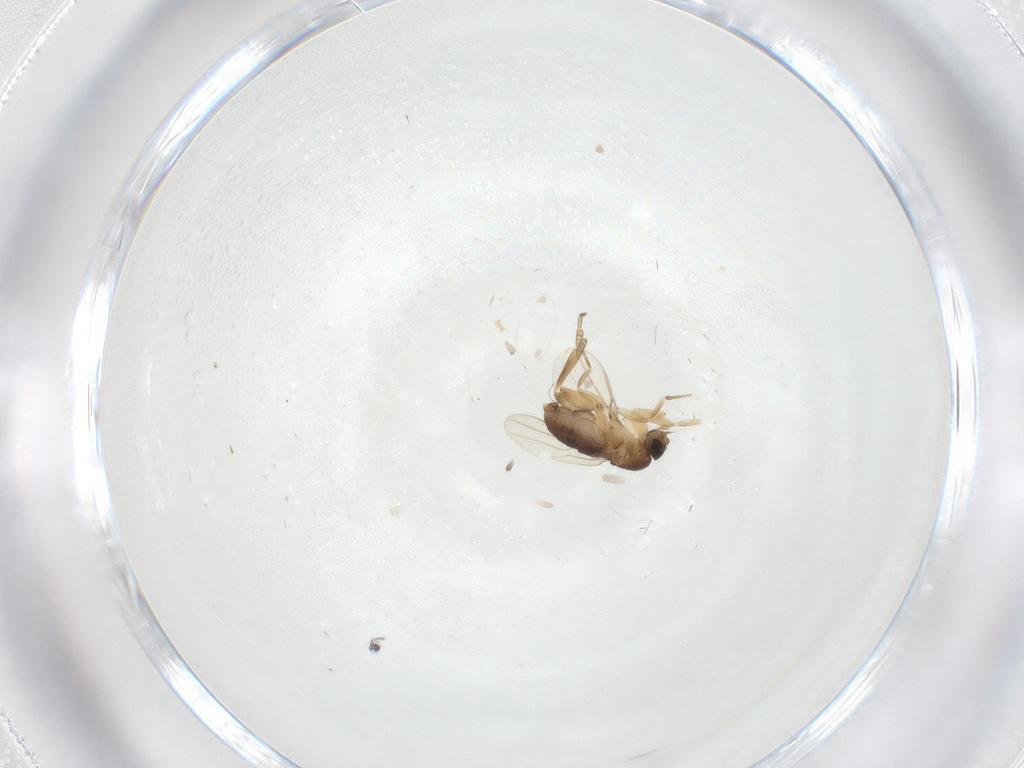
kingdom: Animalia
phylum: Arthropoda
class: Insecta
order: Diptera
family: Phoridae
